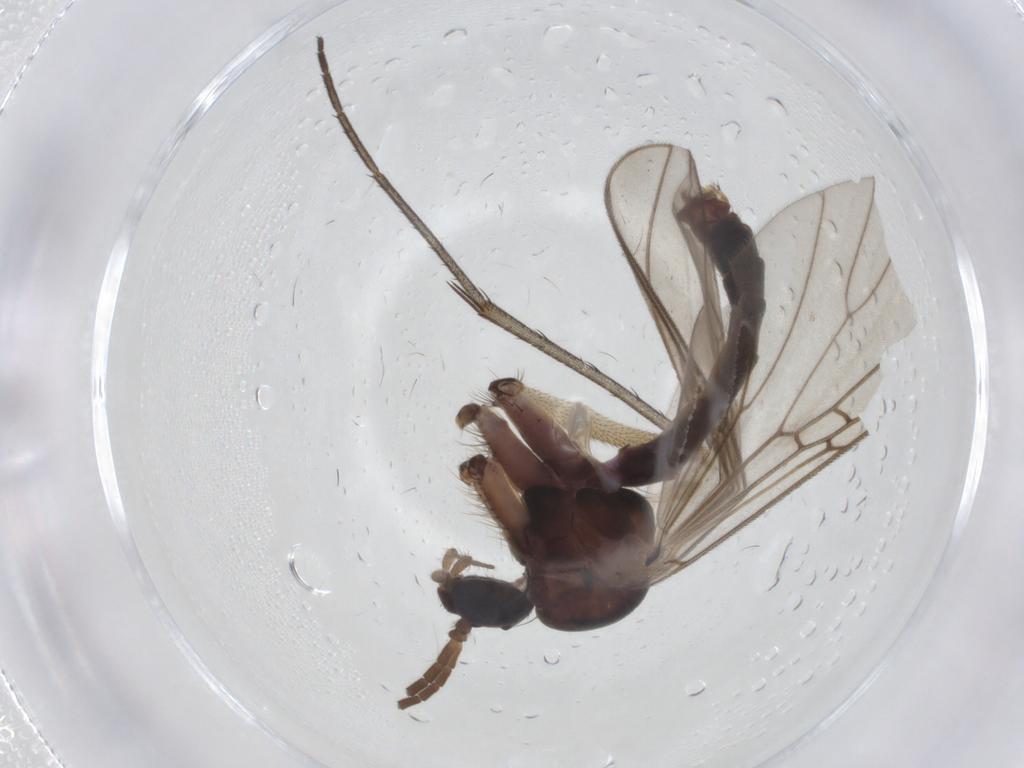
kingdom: Animalia
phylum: Arthropoda
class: Insecta
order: Diptera
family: Mycetophilidae
